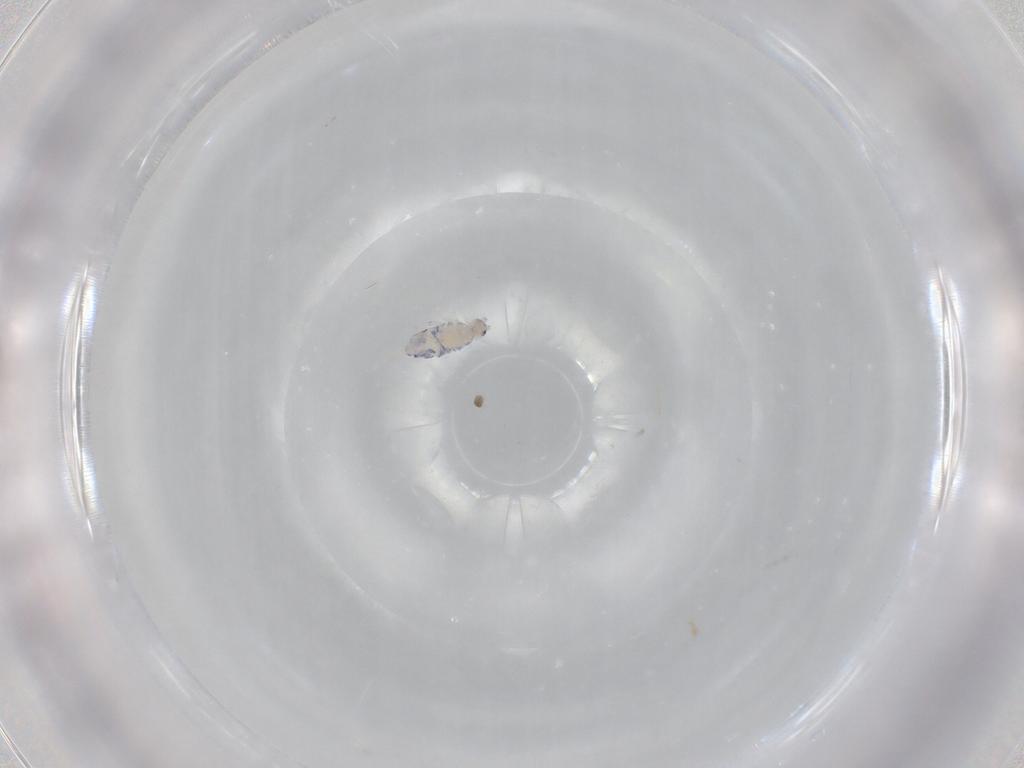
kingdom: Animalia
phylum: Arthropoda
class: Collembola
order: Entomobryomorpha
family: Entomobryidae
